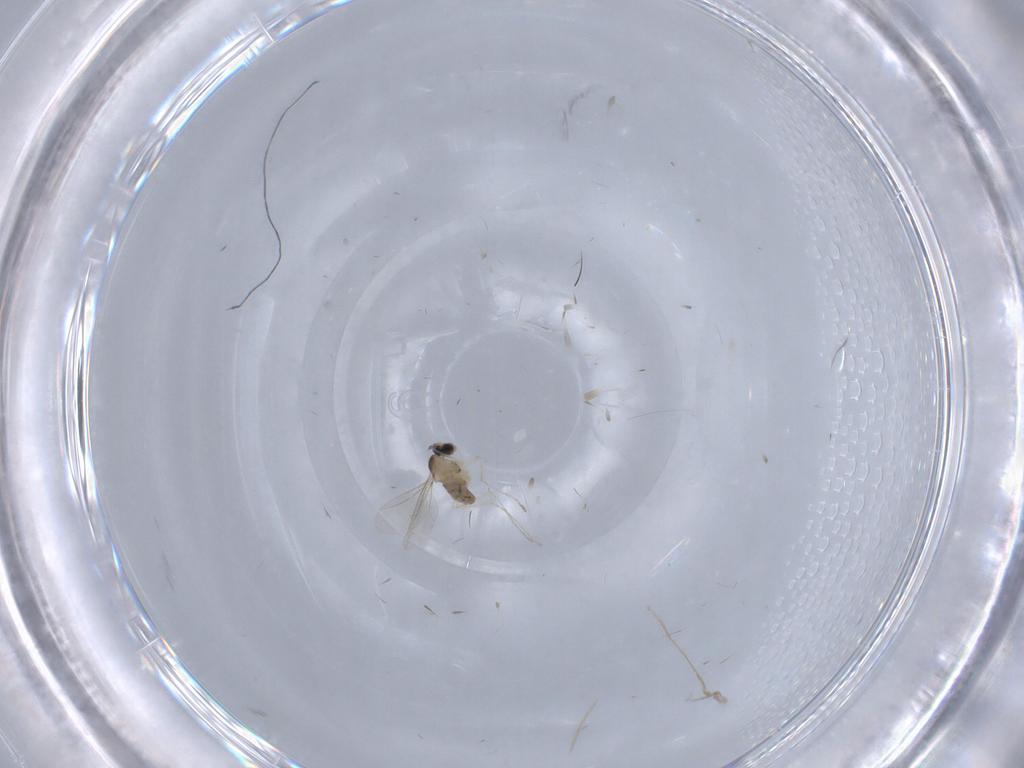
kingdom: Animalia
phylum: Arthropoda
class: Insecta
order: Diptera
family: Cecidomyiidae
